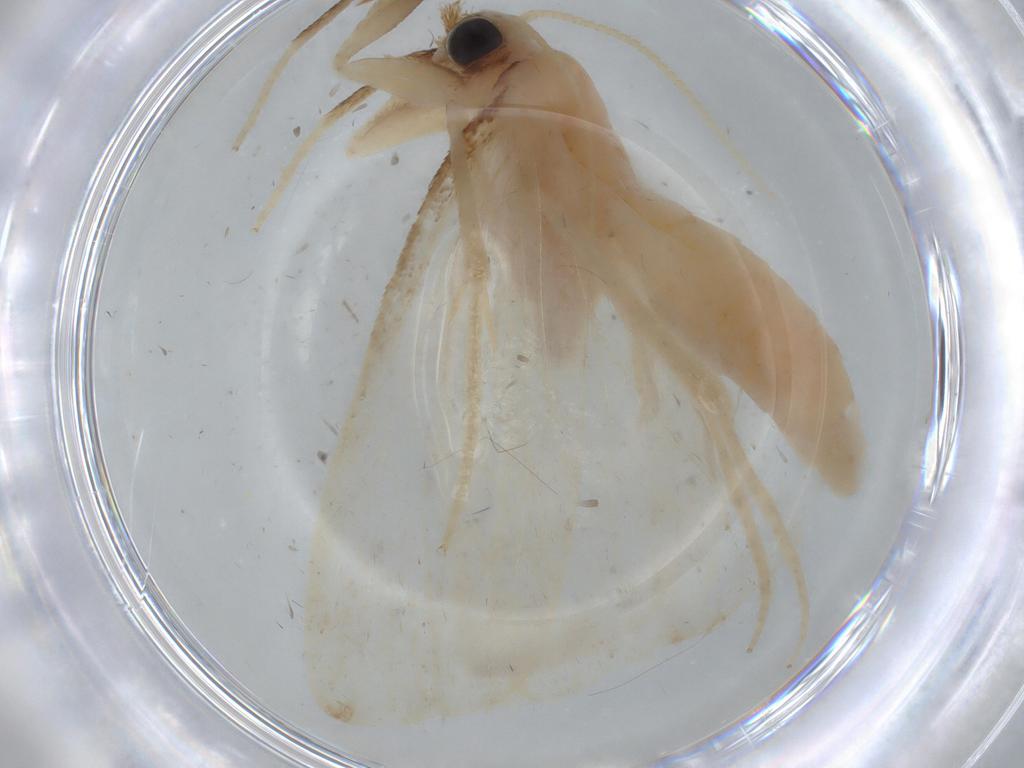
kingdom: Animalia
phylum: Arthropoda
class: Insecta
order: Lepidoptera
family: Crambidae
